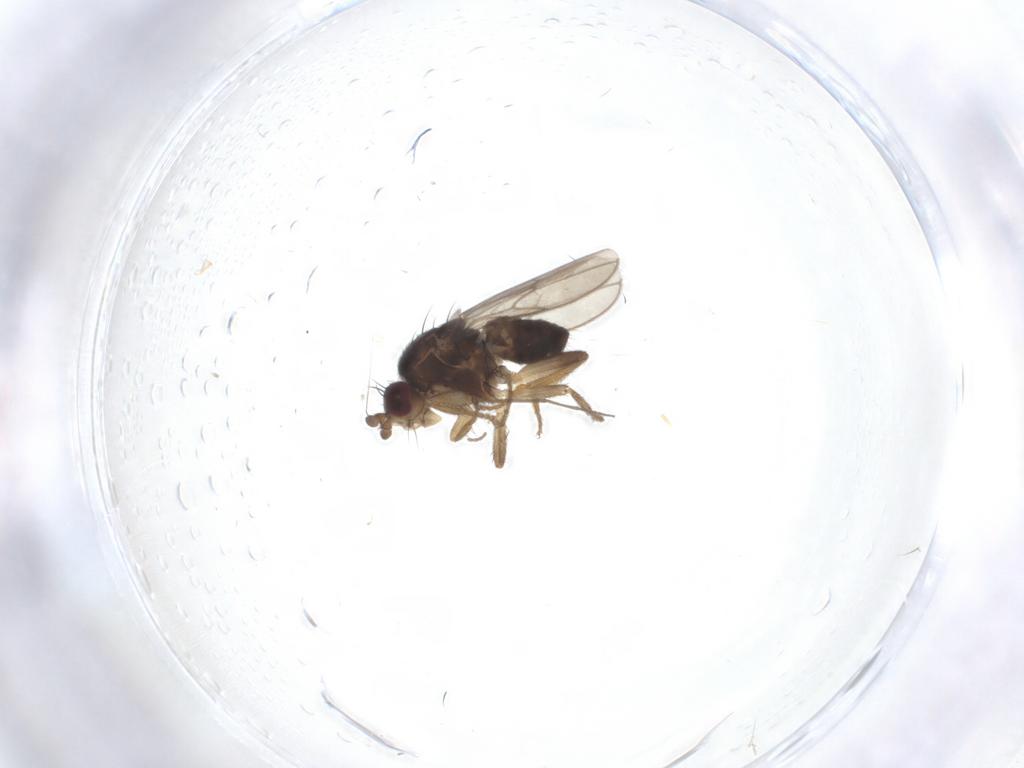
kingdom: Animalia
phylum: Arthropoda
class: Insecta
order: Diptera
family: Sphaeroceridae
